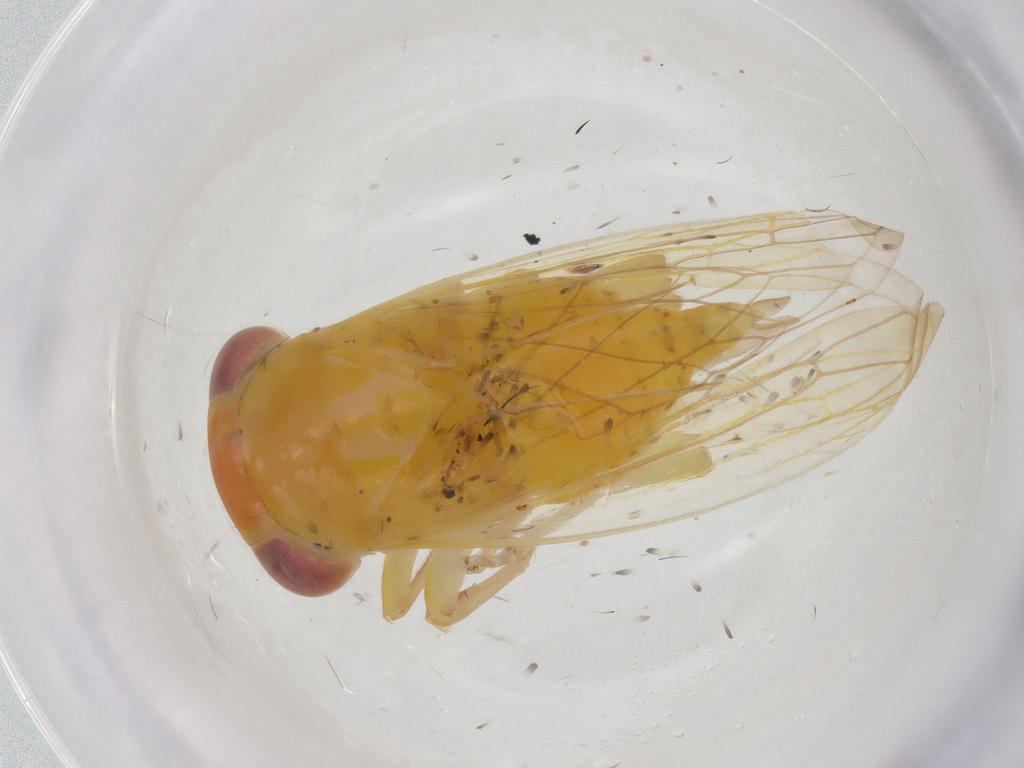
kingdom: Animalia
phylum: Arthropoda
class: Insecta
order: Hemiptera
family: Cicadellidae
